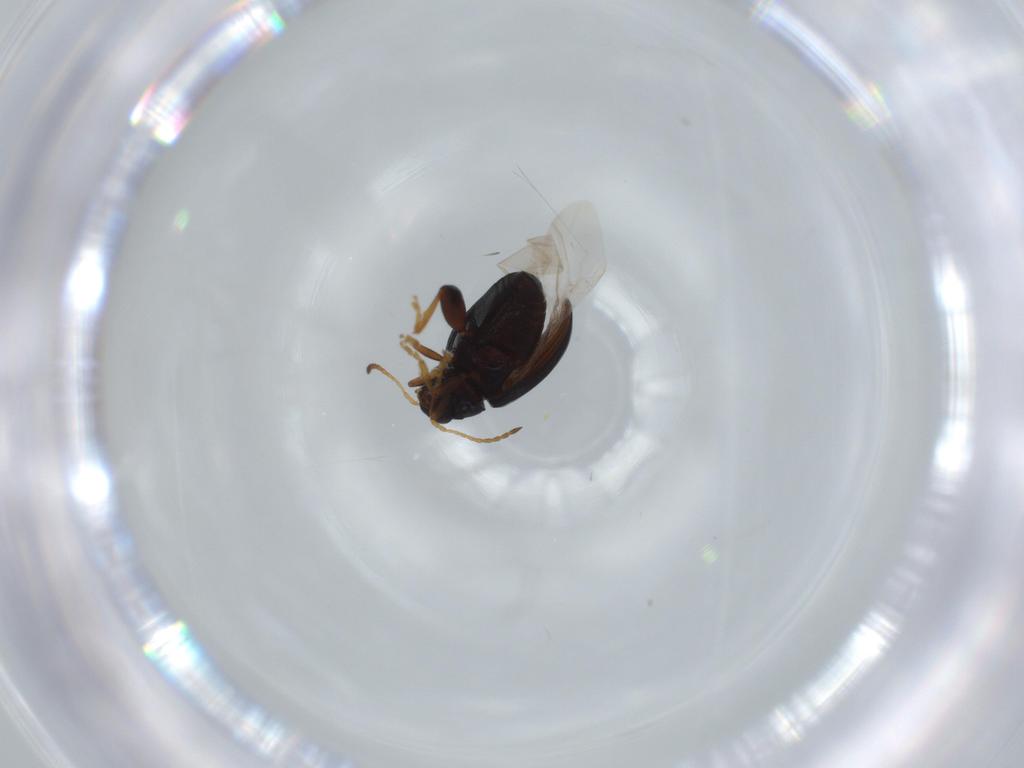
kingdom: Animalia
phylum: Arthropoda
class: Insecta
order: Coleoptera
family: Chrysomelidae
